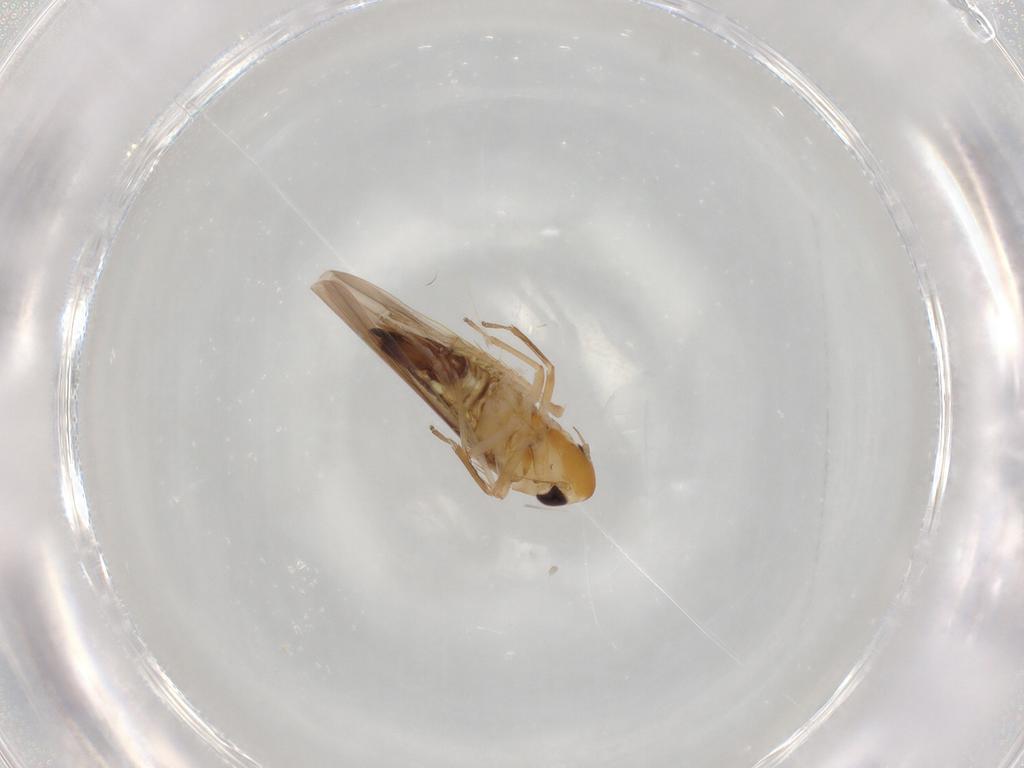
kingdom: Animalia
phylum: Arthropoda
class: Insecta
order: Hemiptera
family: Cicadellidae
